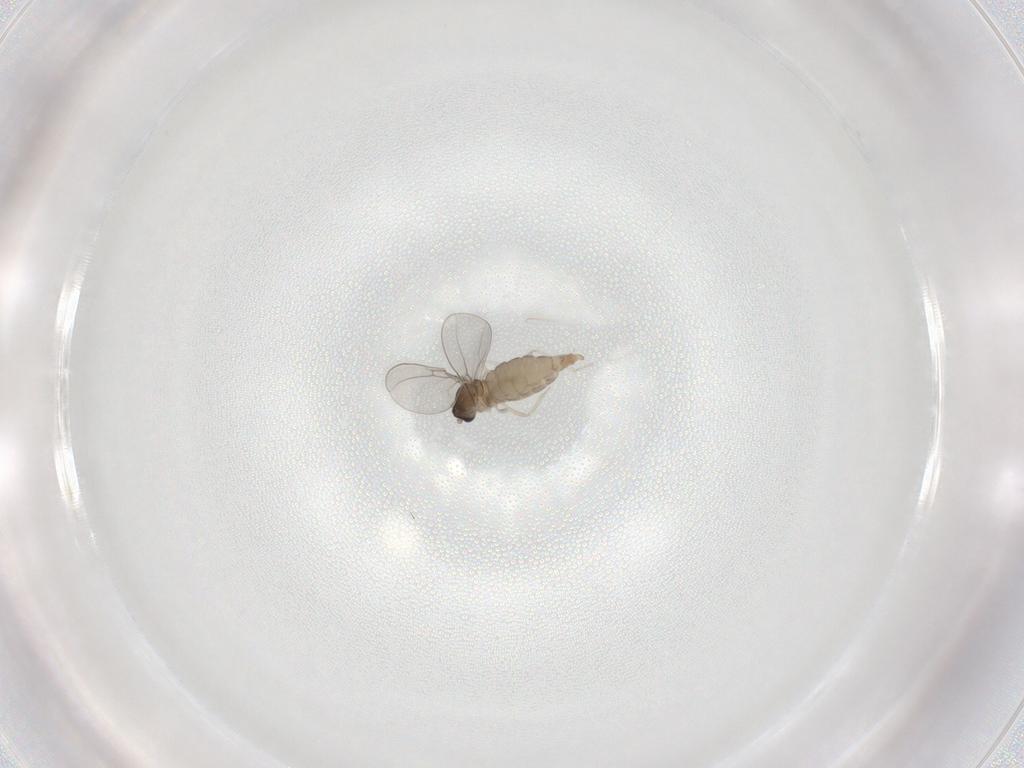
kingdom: Animalia
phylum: Arthropoda
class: Insecta
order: Diptera
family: Cecidomyiidae
